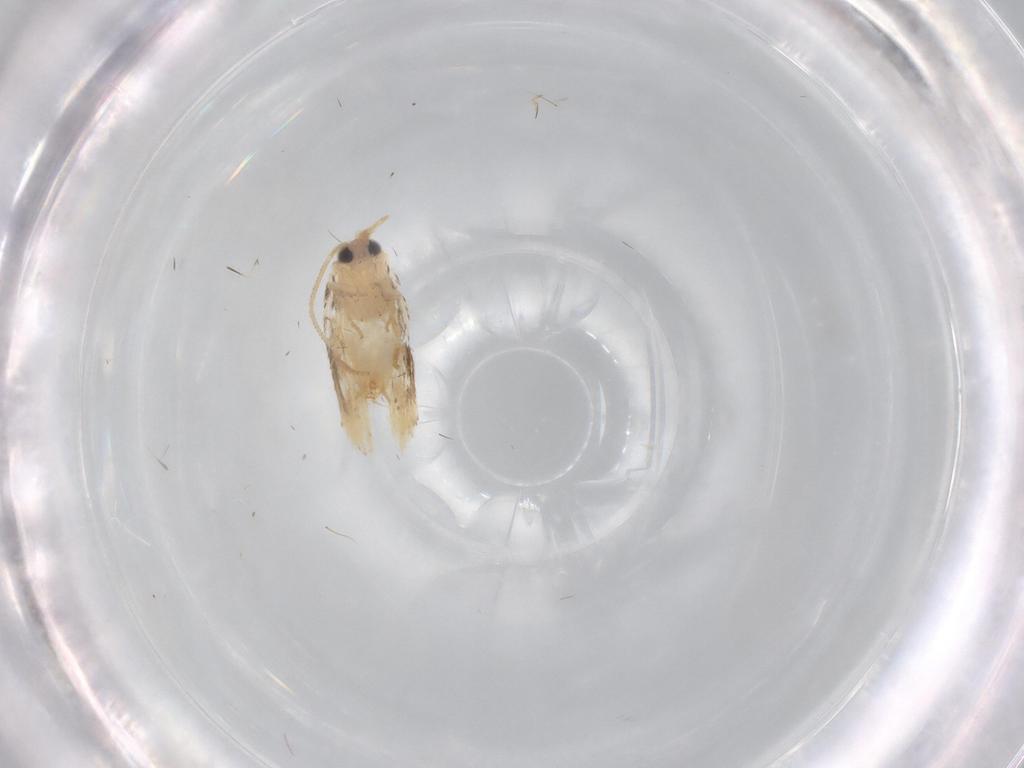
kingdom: Animalia
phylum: Arthropoda
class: Insecta
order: Lepidoptera
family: Nepticulidae
